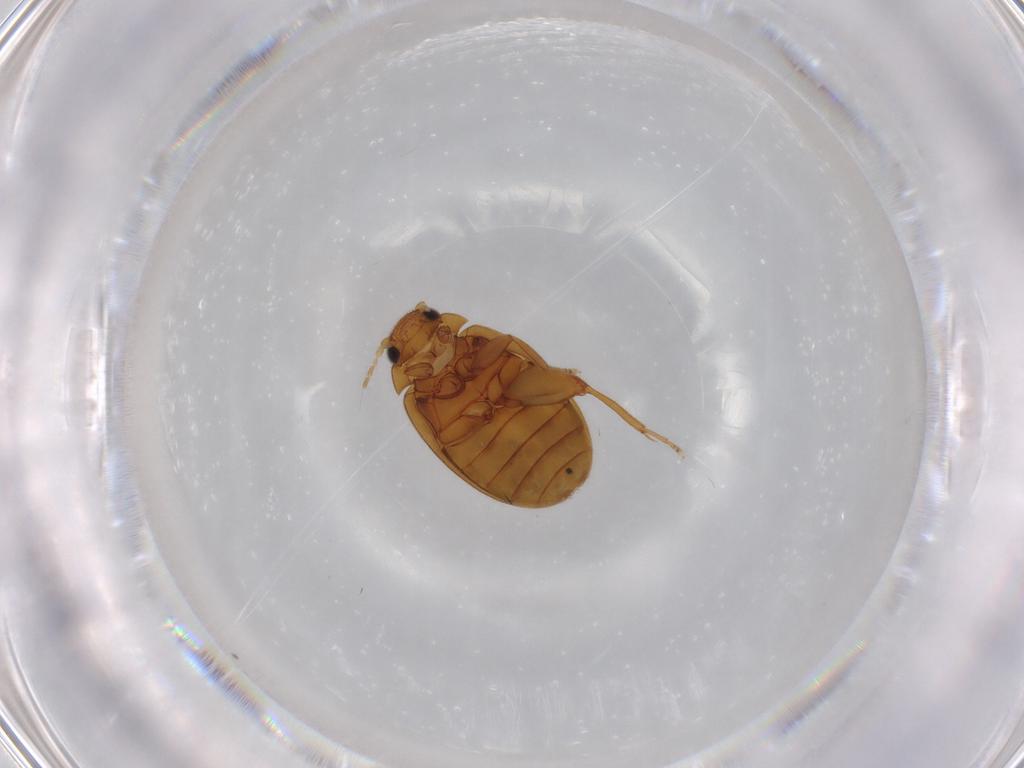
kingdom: Animalia
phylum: Arthropoda
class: Insecta
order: Coleoptera
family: Scirtidae
